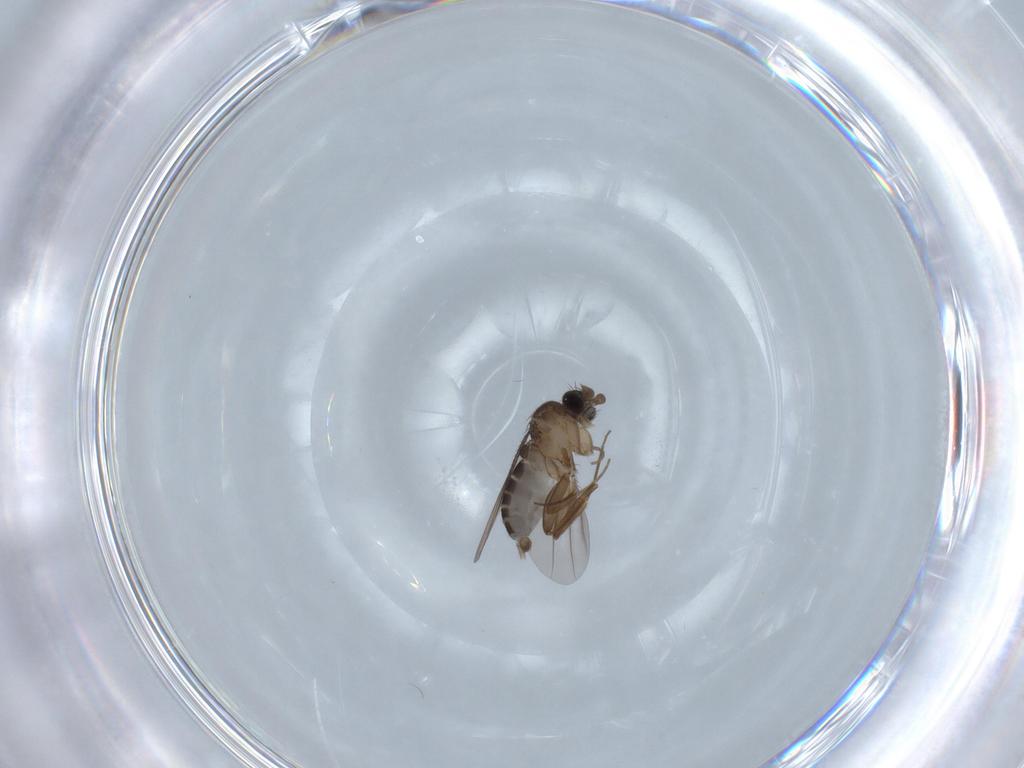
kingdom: Animalia
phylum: Arthropoda
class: Insecta
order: Diptera
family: Phoridae
